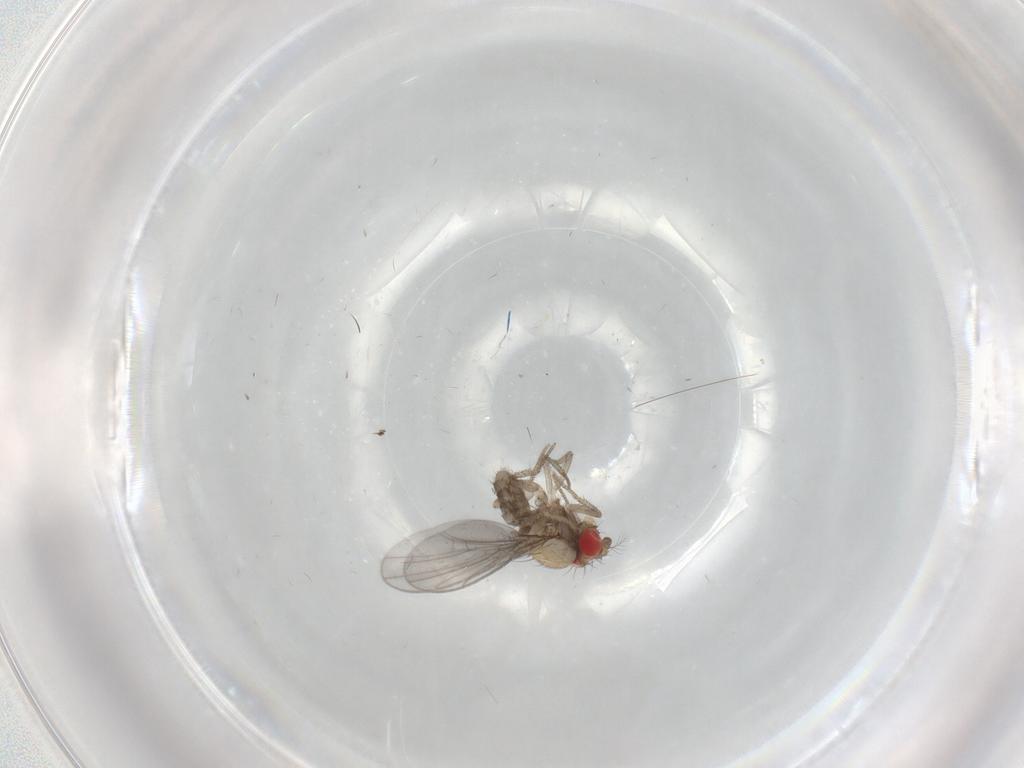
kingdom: Animalia
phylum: Arthropoda
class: Insecta
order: Diptera
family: Drosophilidae
